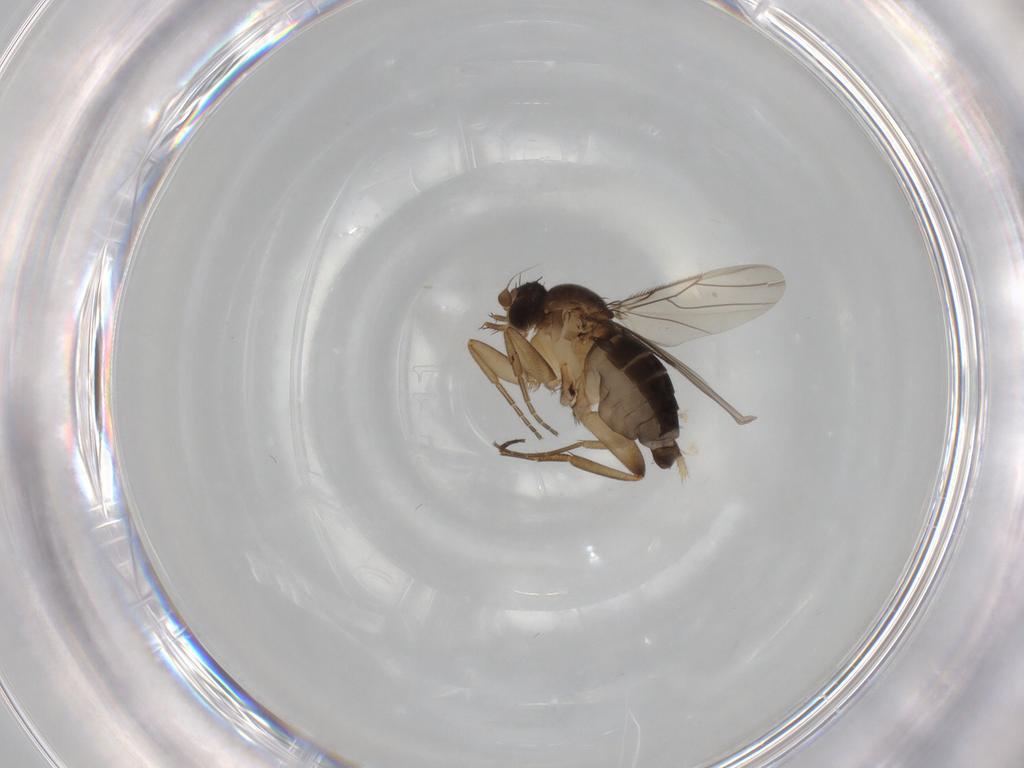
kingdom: Animalia
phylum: Arthropoda
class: Insecta
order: Diptera
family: Phoridae
